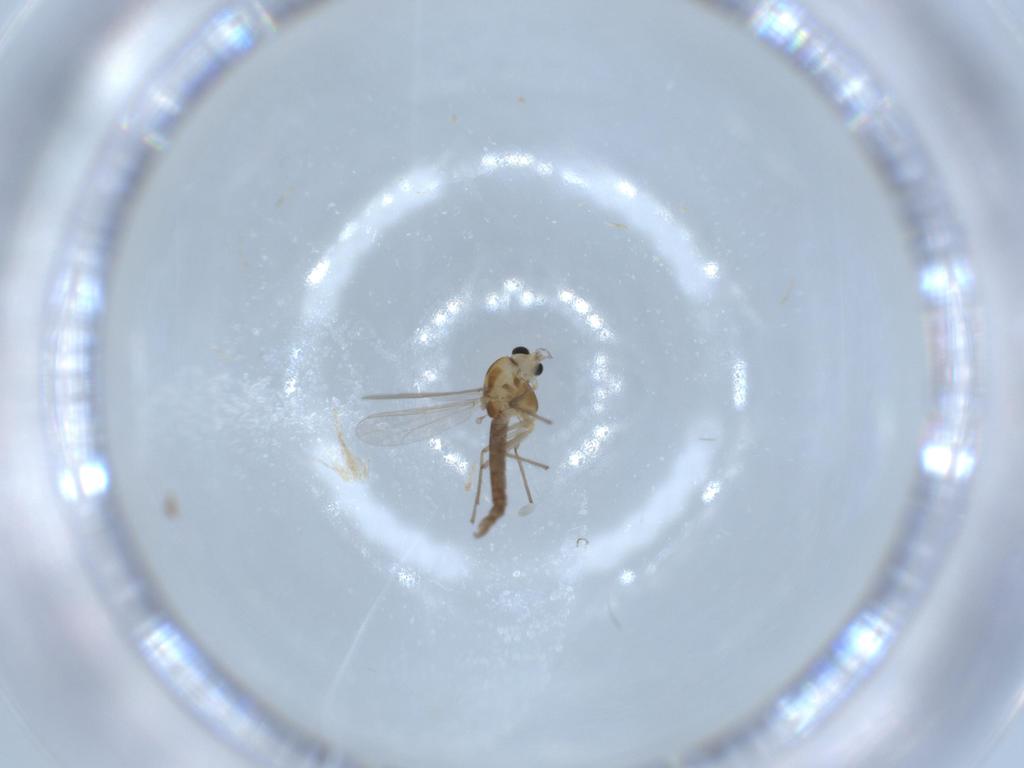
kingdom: Animalia
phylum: Arthropoda
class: Insecta
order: Diptera
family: Chironomidae
